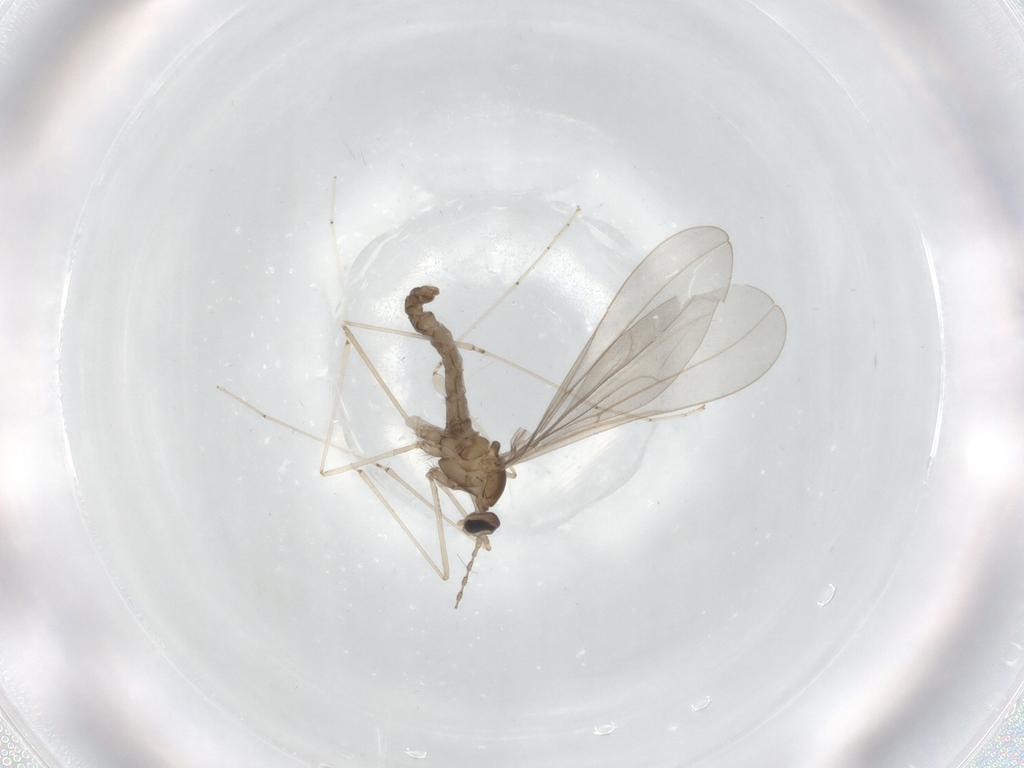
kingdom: Animalia
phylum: Arthropoda
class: Insecta
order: Diptera
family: Cecidomyiidae
